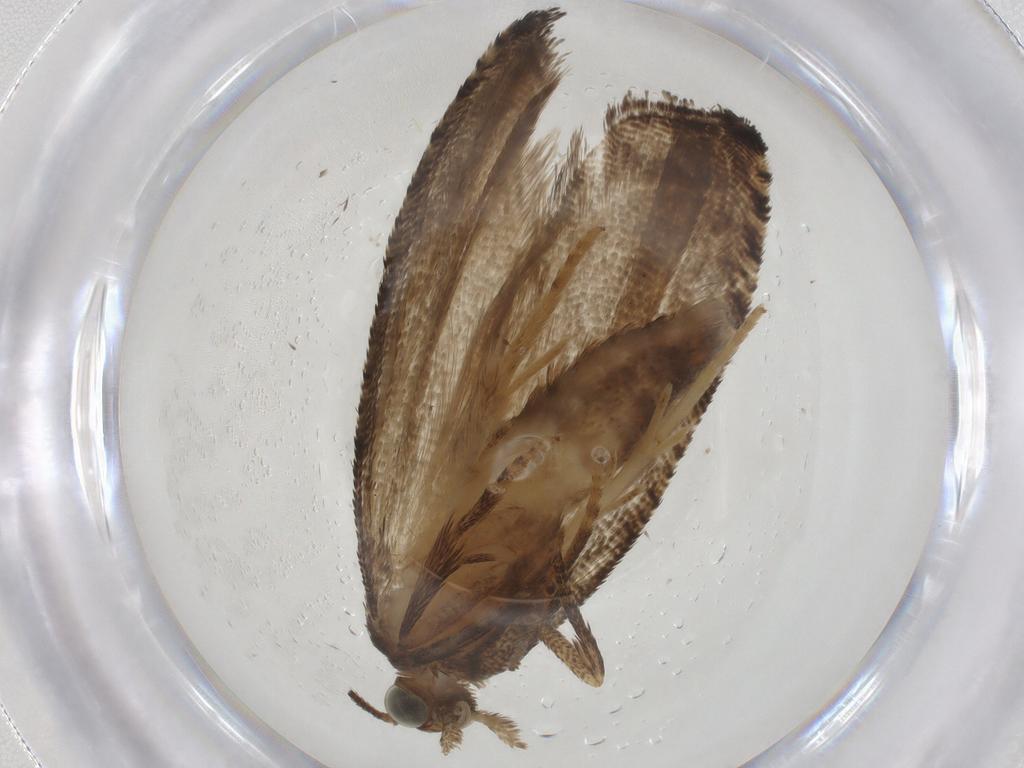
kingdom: Animalia
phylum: Arthropoda
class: Insecta
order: Lepidoptera
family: Tortricidae
